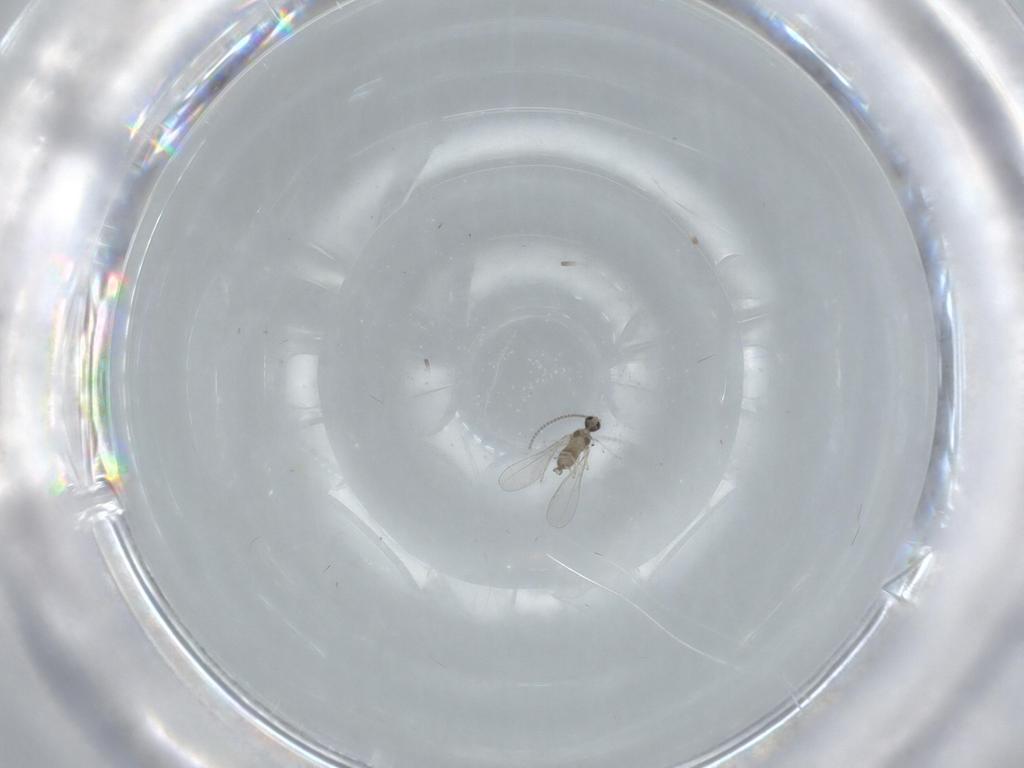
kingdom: Animalia
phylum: Arthropoda
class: Insecta
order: Diptera
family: Cecidomyiidae
